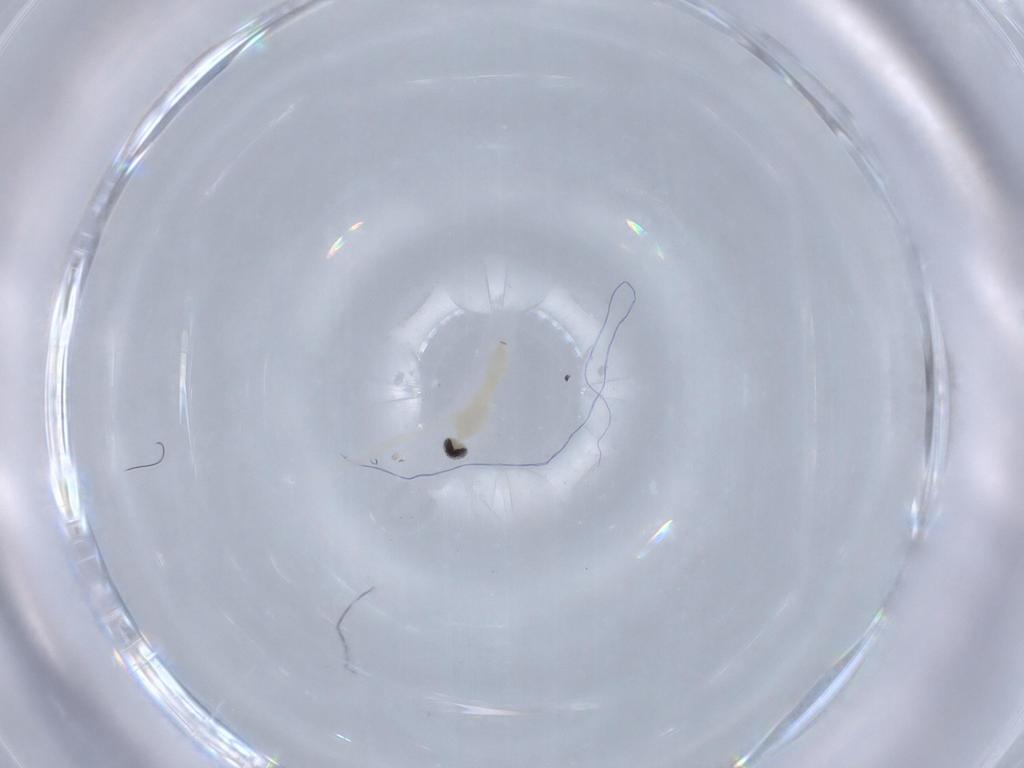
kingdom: Animalia
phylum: Arthropoda
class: Insecta
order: Diptera
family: Cecidomyiidae
